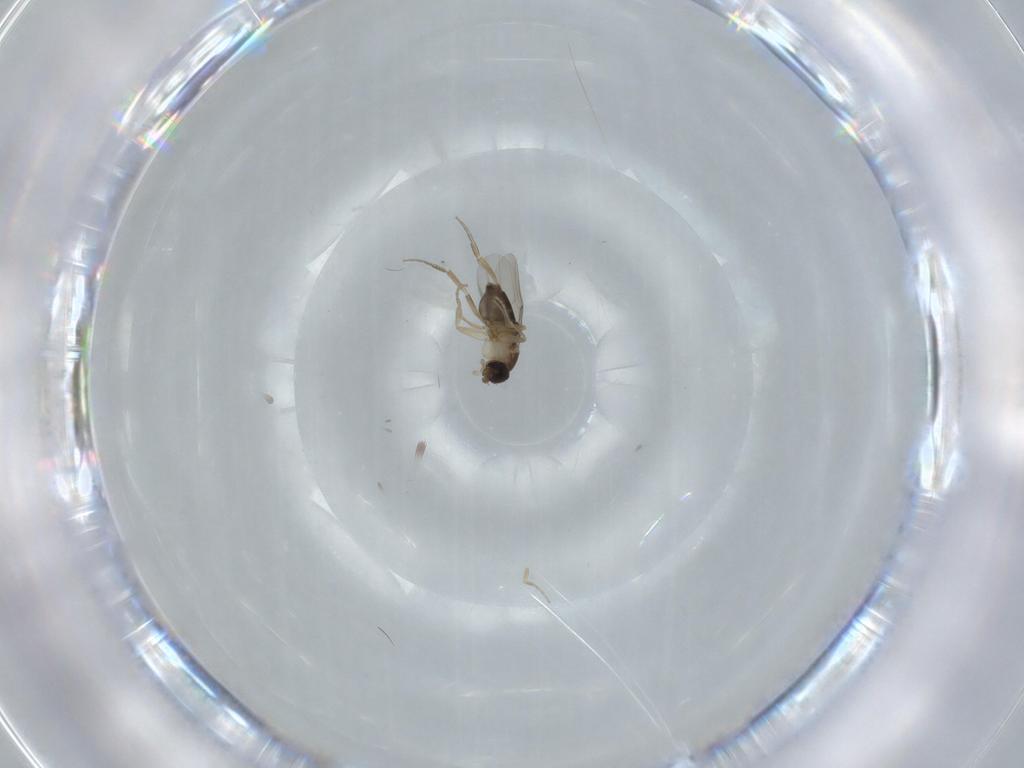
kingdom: Animalia
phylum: Arthropoda
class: Insecta
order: Diptera
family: Phoridae
